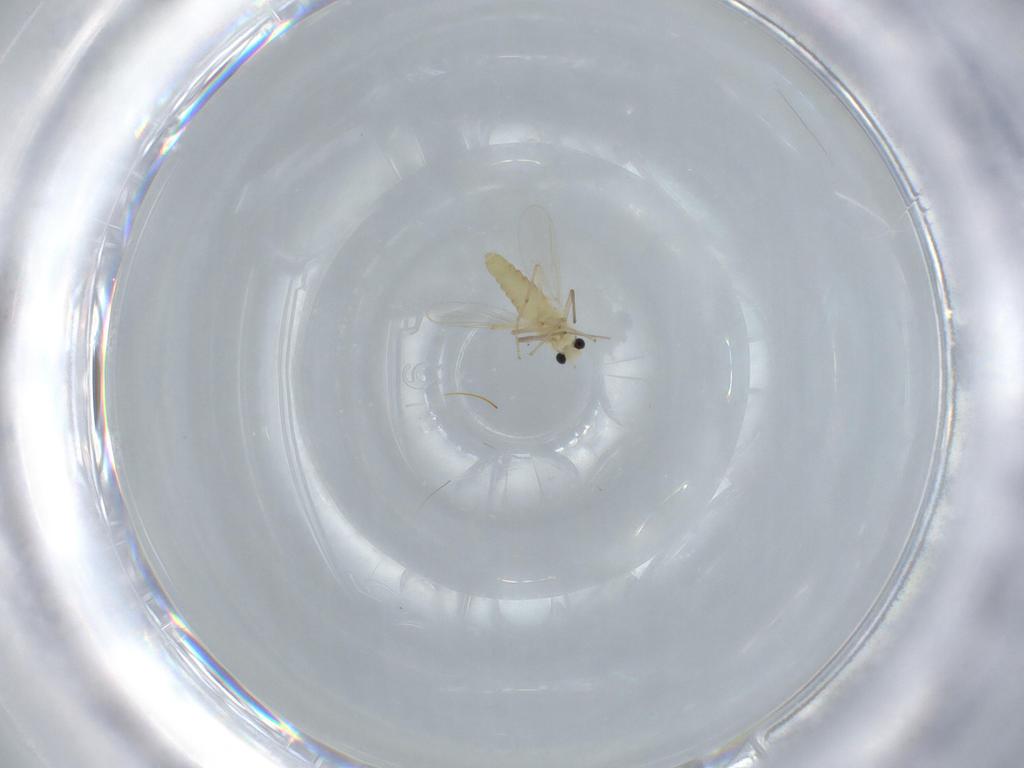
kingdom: Animalia
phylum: Arthropoda
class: Insecta
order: Diptera
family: Chironomidae
